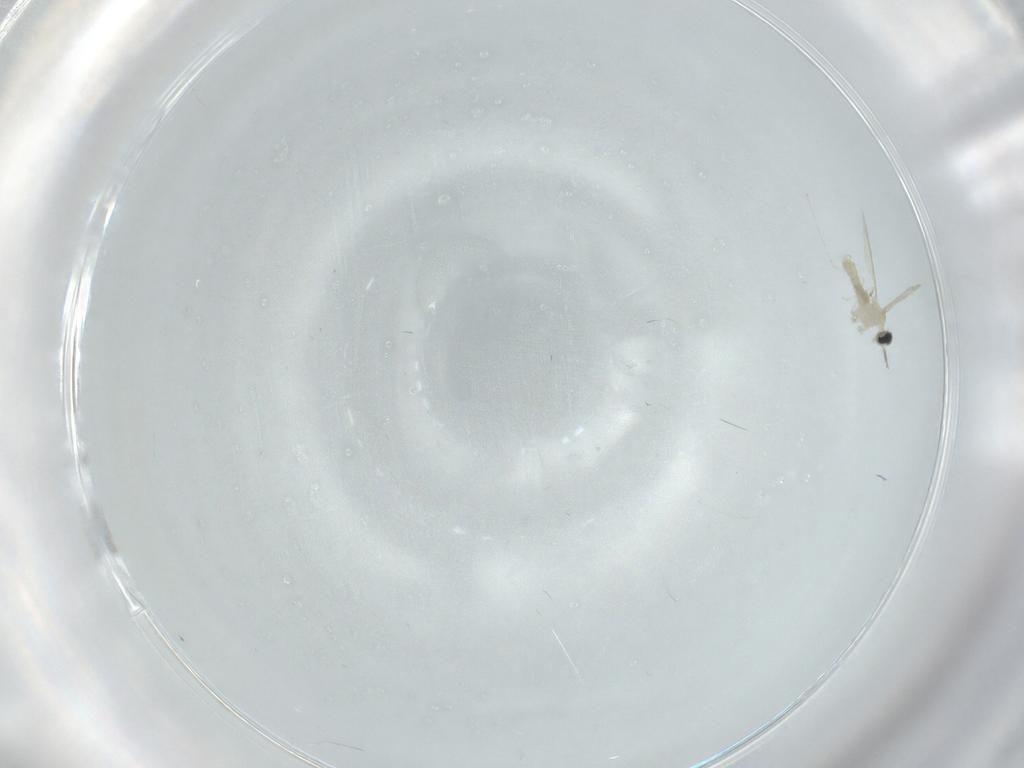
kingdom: Animalia
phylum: Arthropoda
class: Insecta
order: Diptera
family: Cecidomyiidae
